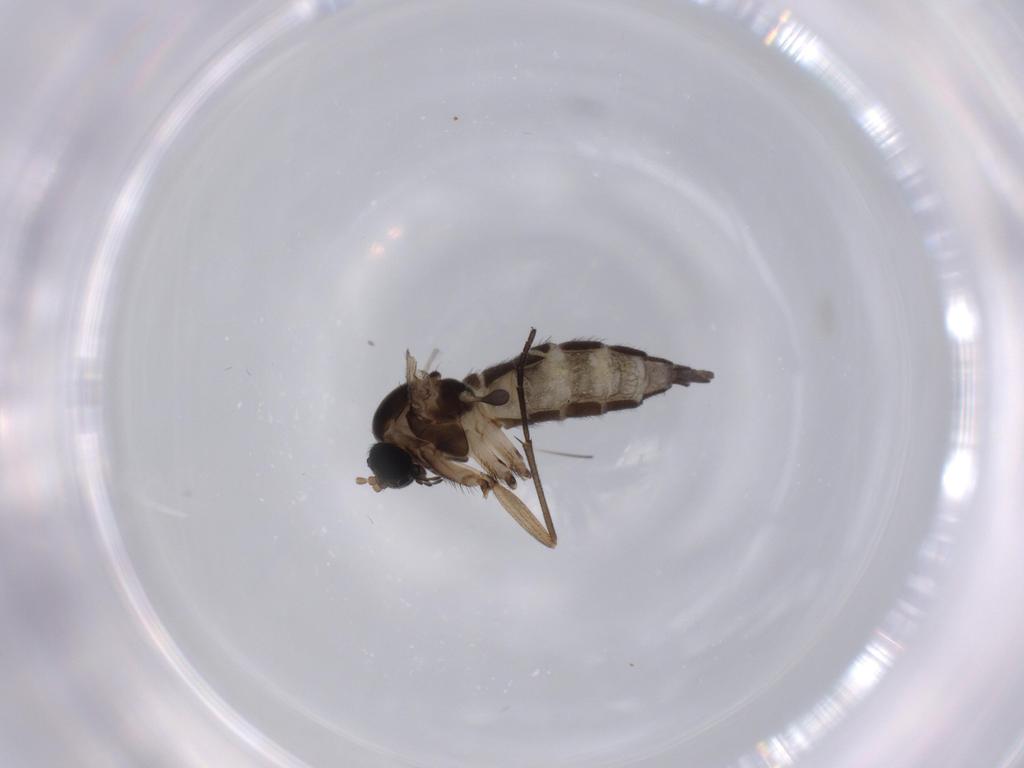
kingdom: Animalia
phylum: Arthropoda
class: Insecta
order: Diptera
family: Sciaridae
